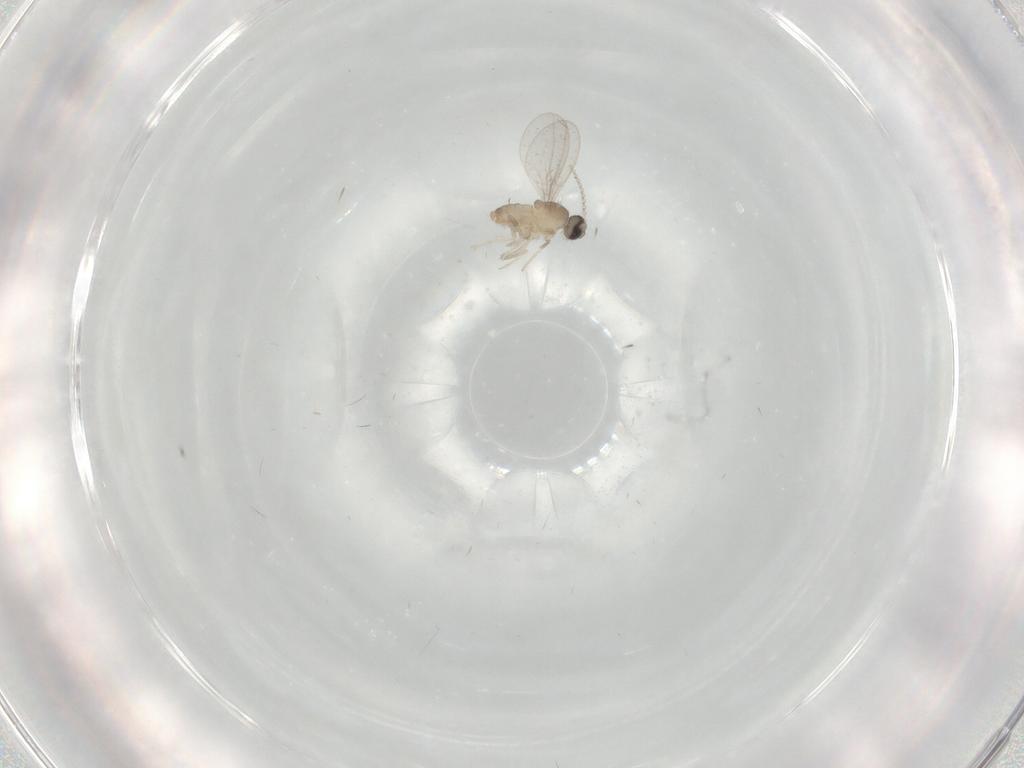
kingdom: Animalia
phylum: Arthropoda
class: Insecta
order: Diptera
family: Cecidomyiidae
